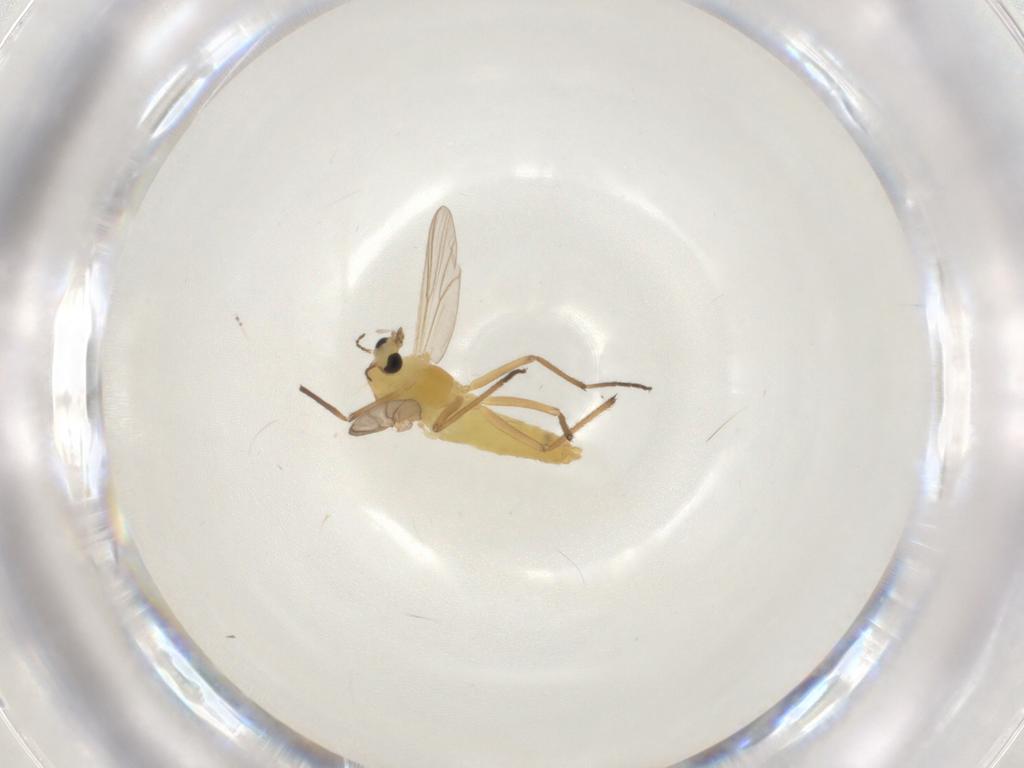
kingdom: Animalia
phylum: Arthropoda
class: Insecta
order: Diptera
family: Chironomidae
